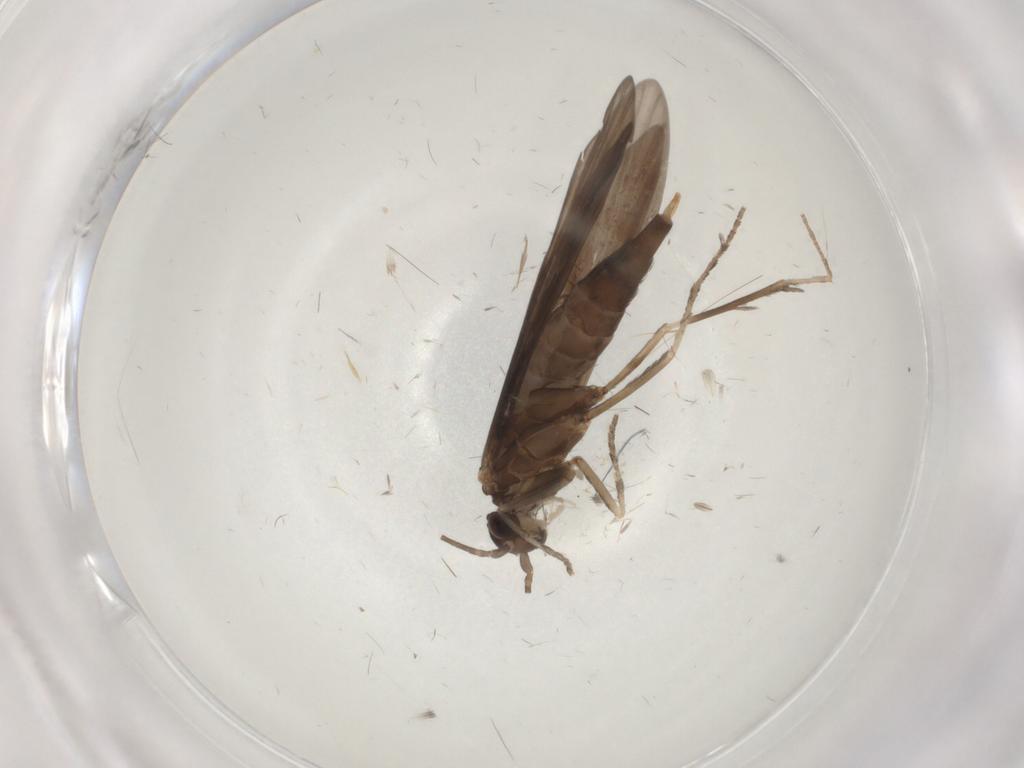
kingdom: Animalia
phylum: Arthropoda
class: Insecta
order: Trichoptera
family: Xiphocentronidae
